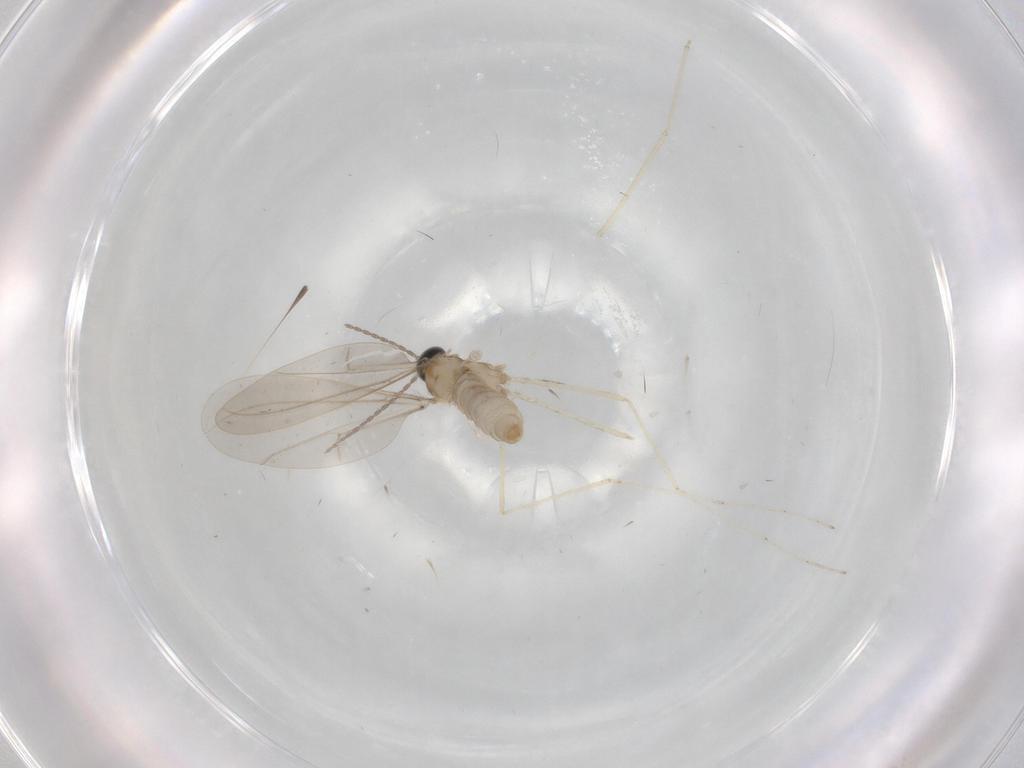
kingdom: Animalia
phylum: Arthropoda
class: Insecta
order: Diptera
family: Cecidomyiidae
